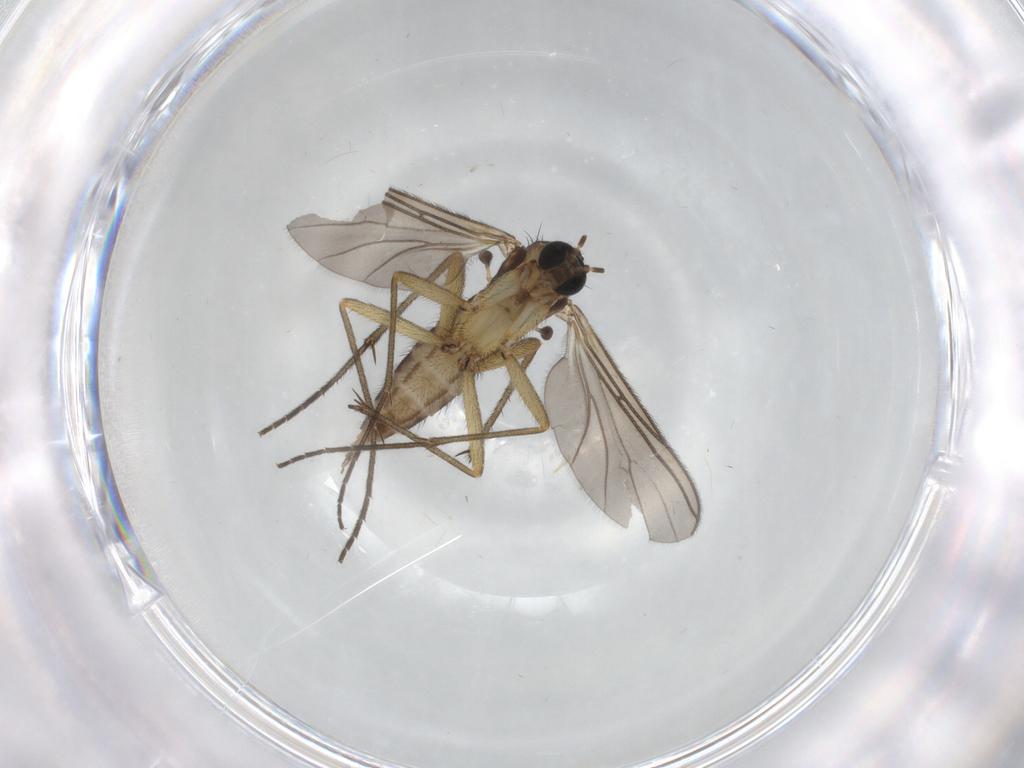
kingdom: Animalia
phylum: Arthropoda
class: Insecta
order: Diptera
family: Sciaridae
